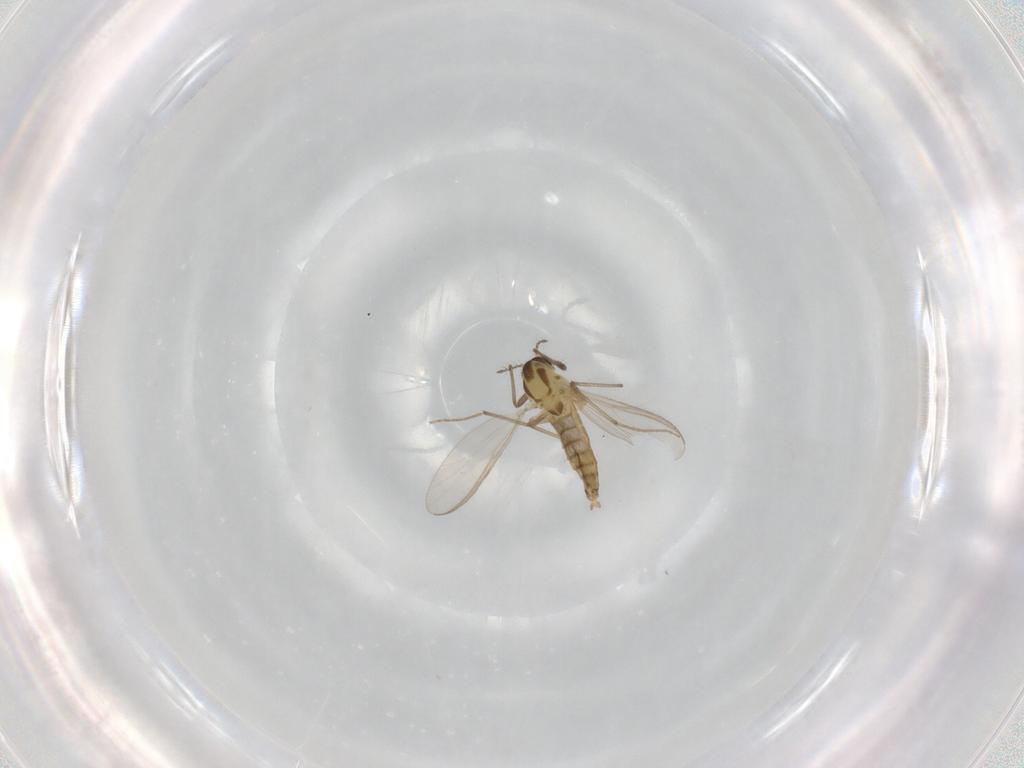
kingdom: Animalia
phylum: Arthropoda
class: Insecta
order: Diptera
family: Chironomidae
